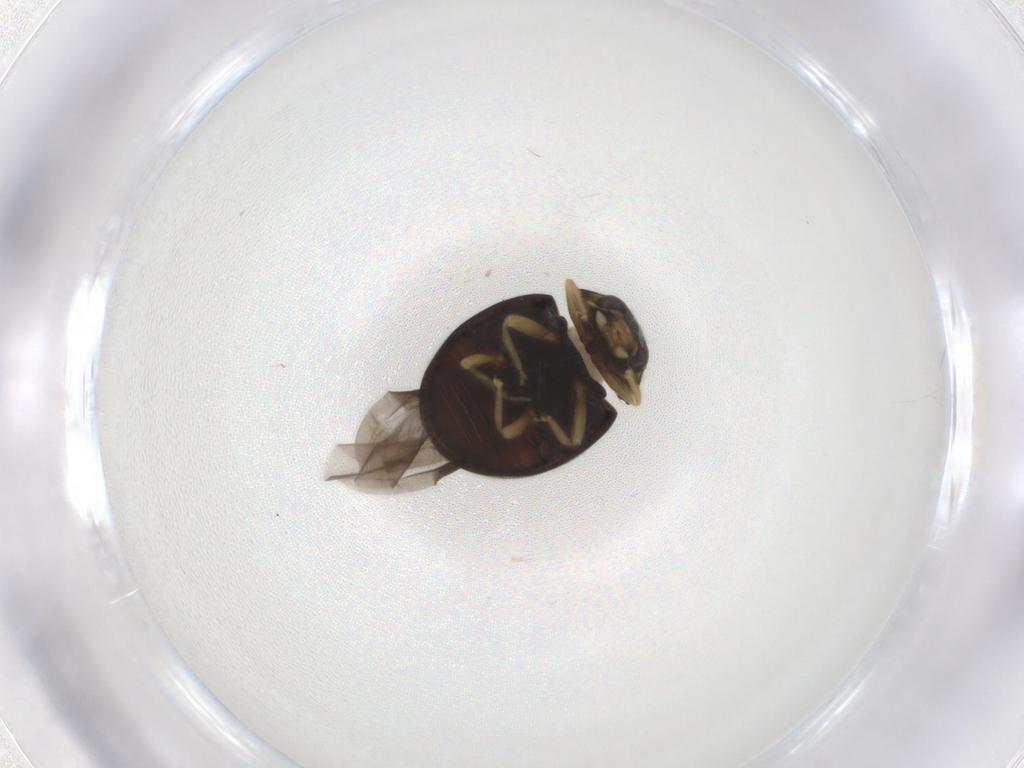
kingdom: Animalia
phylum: Arthropoda
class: Insecta
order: Coleoptera
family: Coccinellidae
